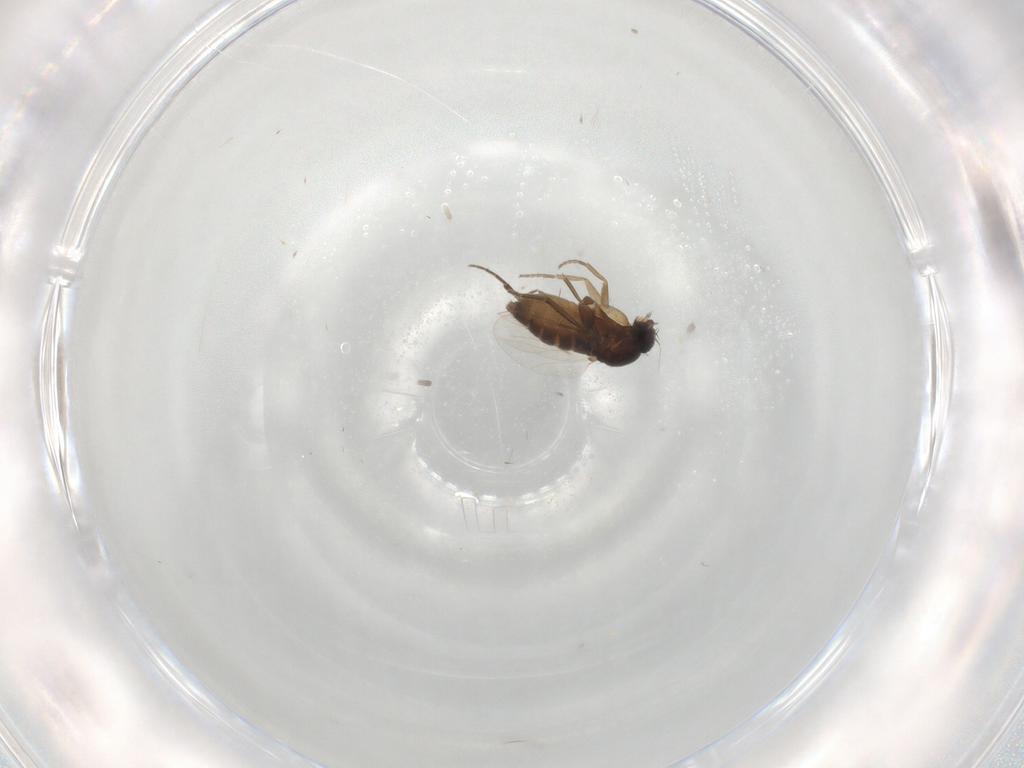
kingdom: Animalia
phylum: Arthropoda
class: Insecta
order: Diptera
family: Phoridae
